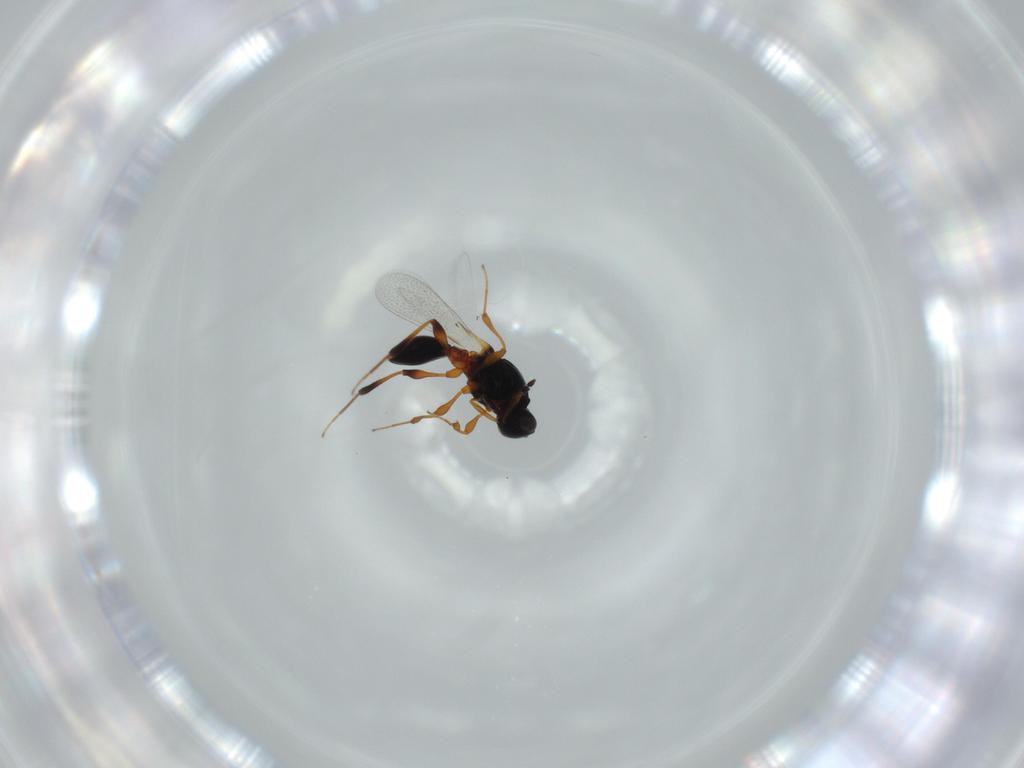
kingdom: Animalia
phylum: Arthropoda
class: Insecta
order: Hymenoptera
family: Platygastridae
